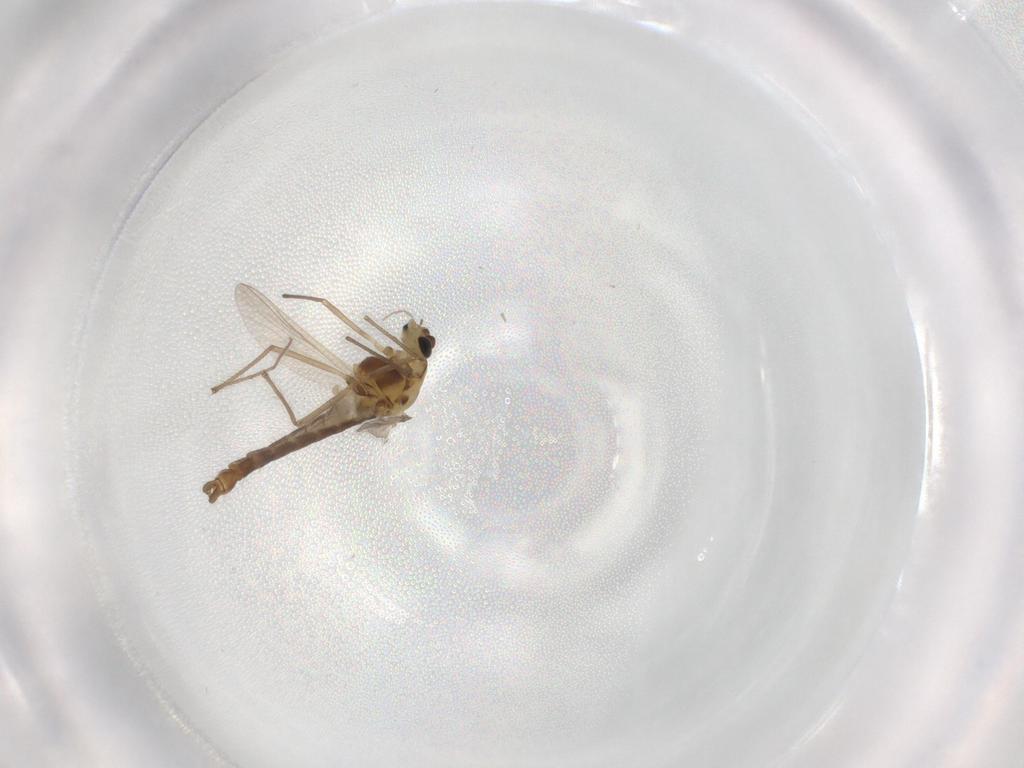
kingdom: Animalia
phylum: Arthropoda
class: Insecta
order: Diptera
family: Chironomidae
